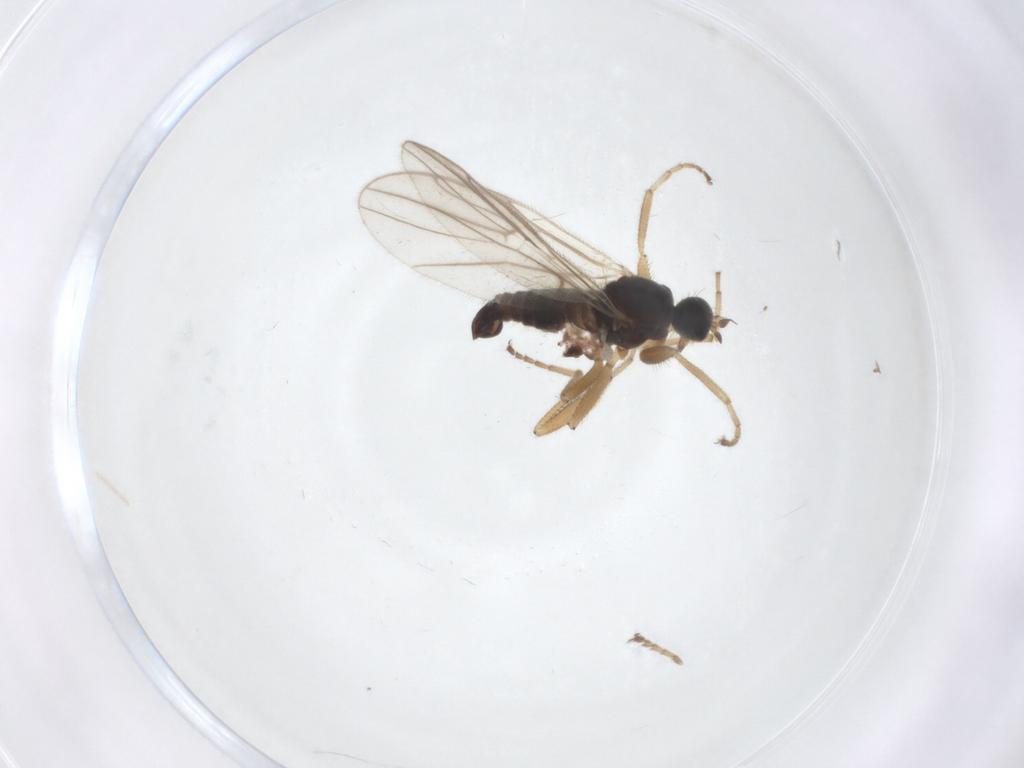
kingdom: Animalia
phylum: Arthropoda
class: Insecta
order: Diptera
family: Hybotidae
